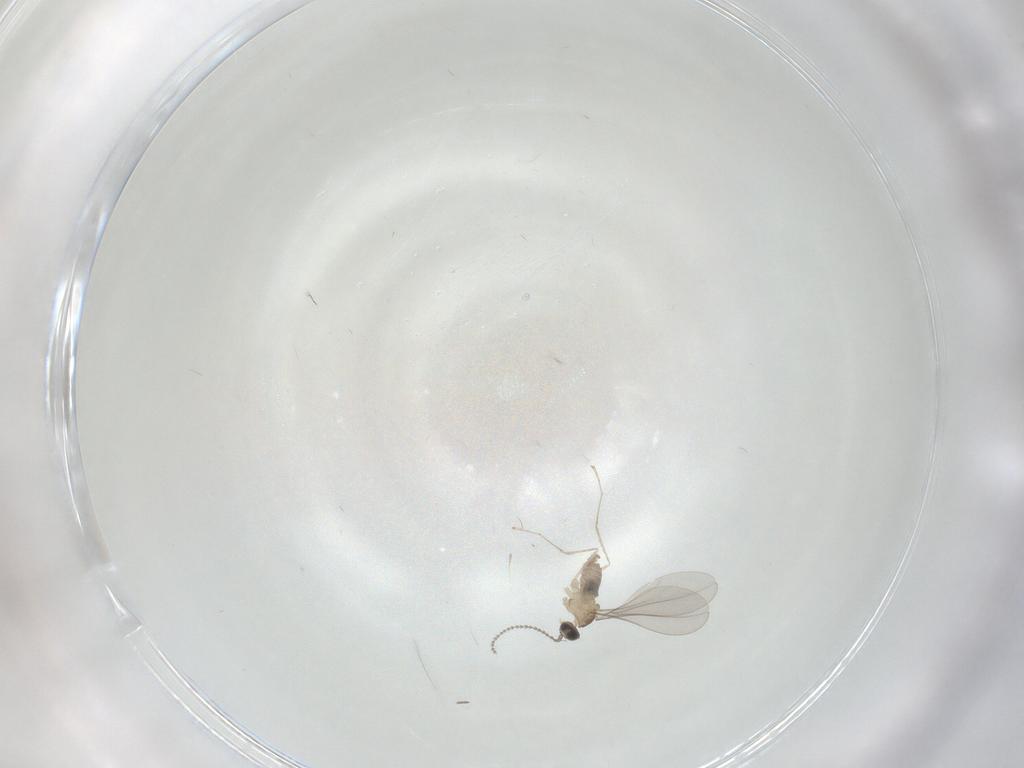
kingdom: Animalia
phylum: Arthropoda
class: Insecta
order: Diptera
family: Cecidomyiidae
